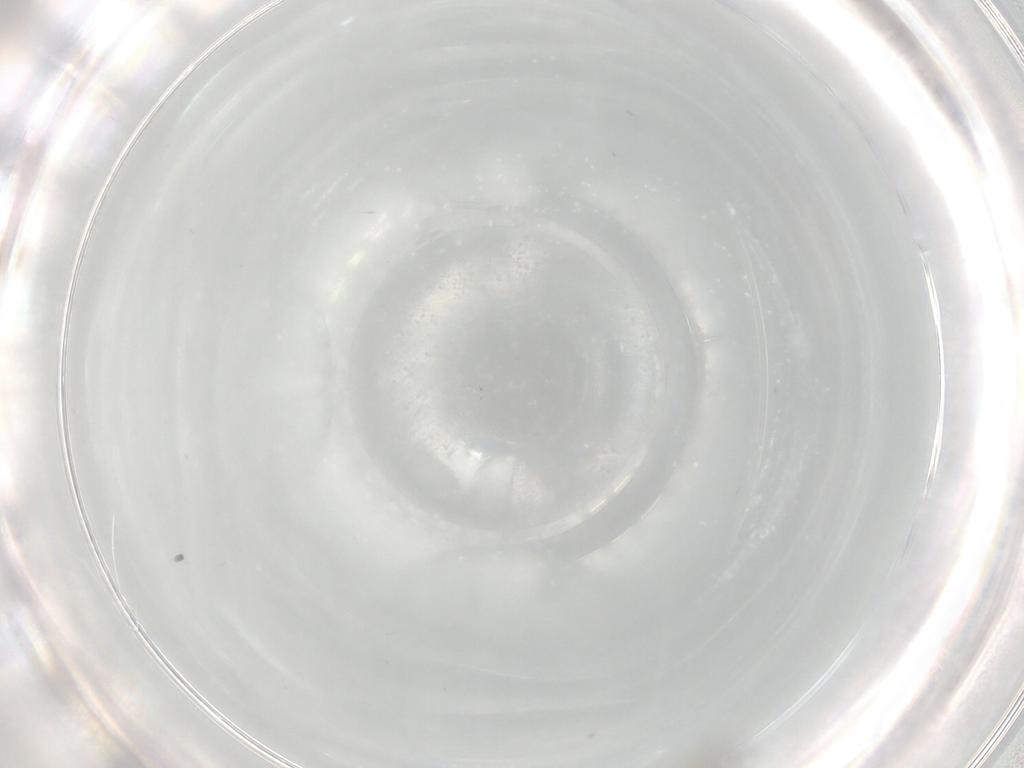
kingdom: Animalia
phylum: Arthropoda
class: Insecta
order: Diptera
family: Cecidomyiidae
